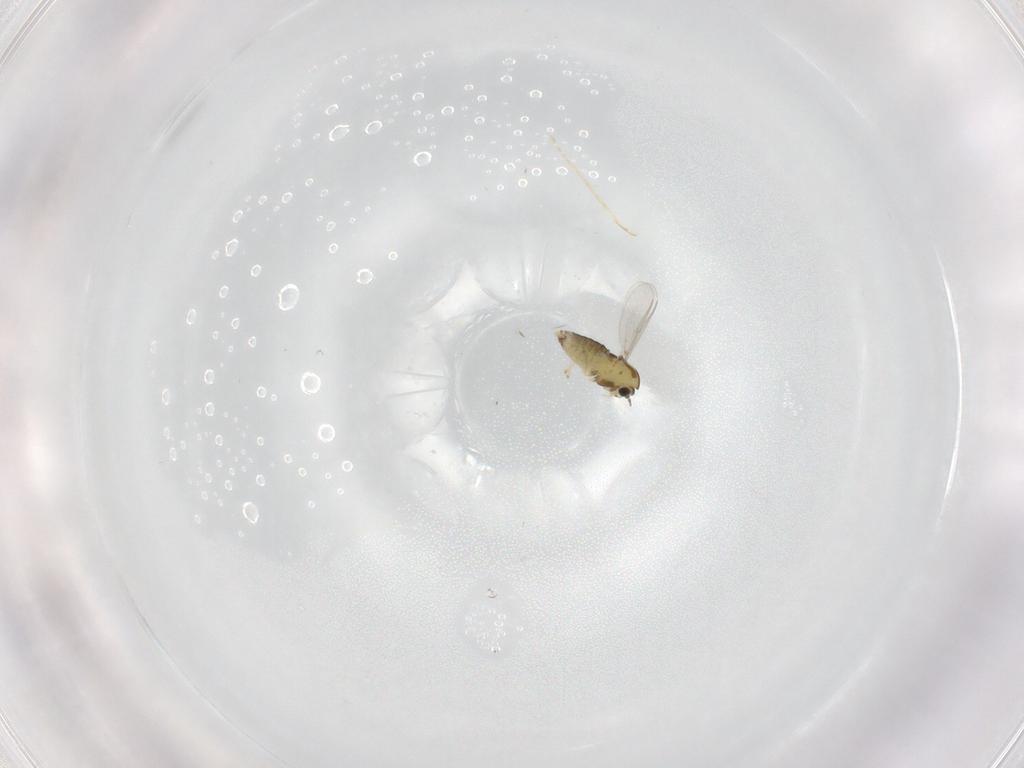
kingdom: Animalia
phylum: Arthropoda
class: Insecta
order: Diptera
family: Chironomidae
